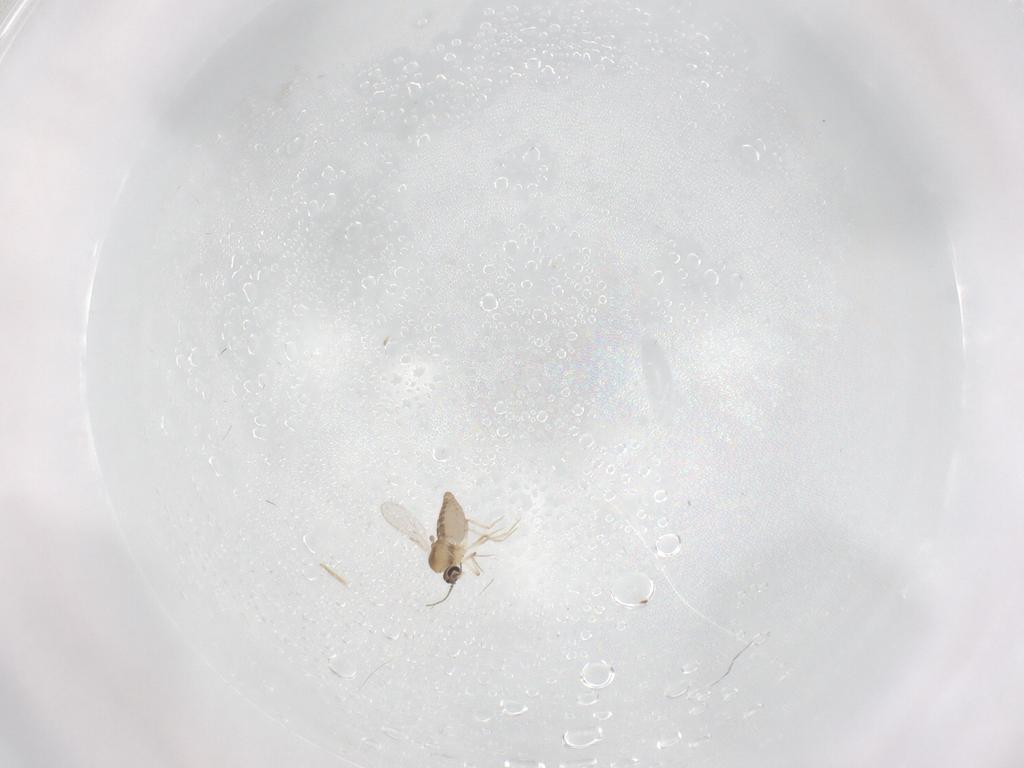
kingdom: Animalia
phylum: Arthropoda
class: Insecta
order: Diptera
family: Ceratopogonidae
